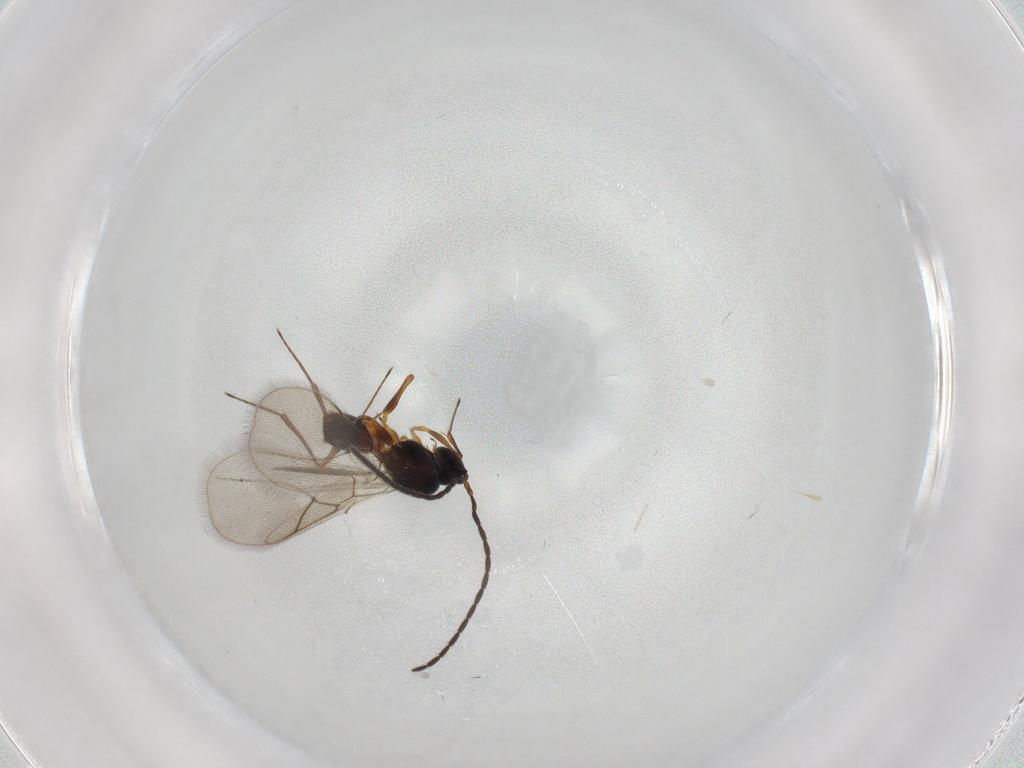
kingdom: Animalia
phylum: Arthropoda
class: Insecta
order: Hymenoptera
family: Figitidae
